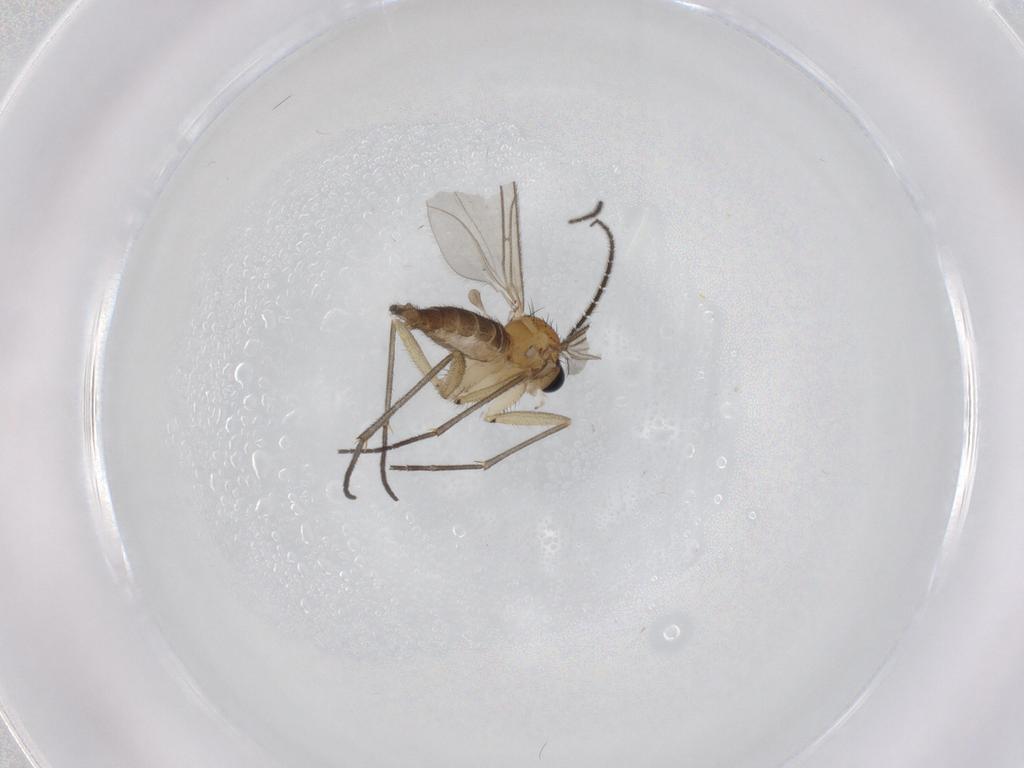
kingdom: Animalia
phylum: Arthropoda
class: Insecta
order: Diptera
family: Sciaridae
